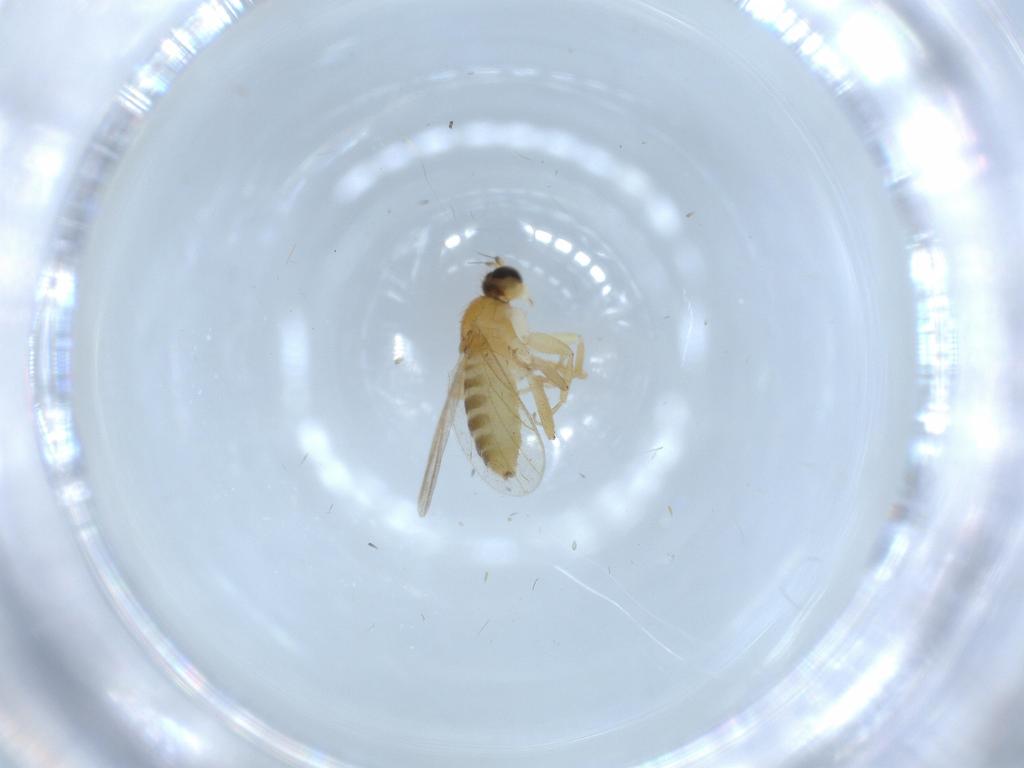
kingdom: Animalia
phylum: Arthropoda
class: Insecta
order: Diptera
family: Hybotidae
